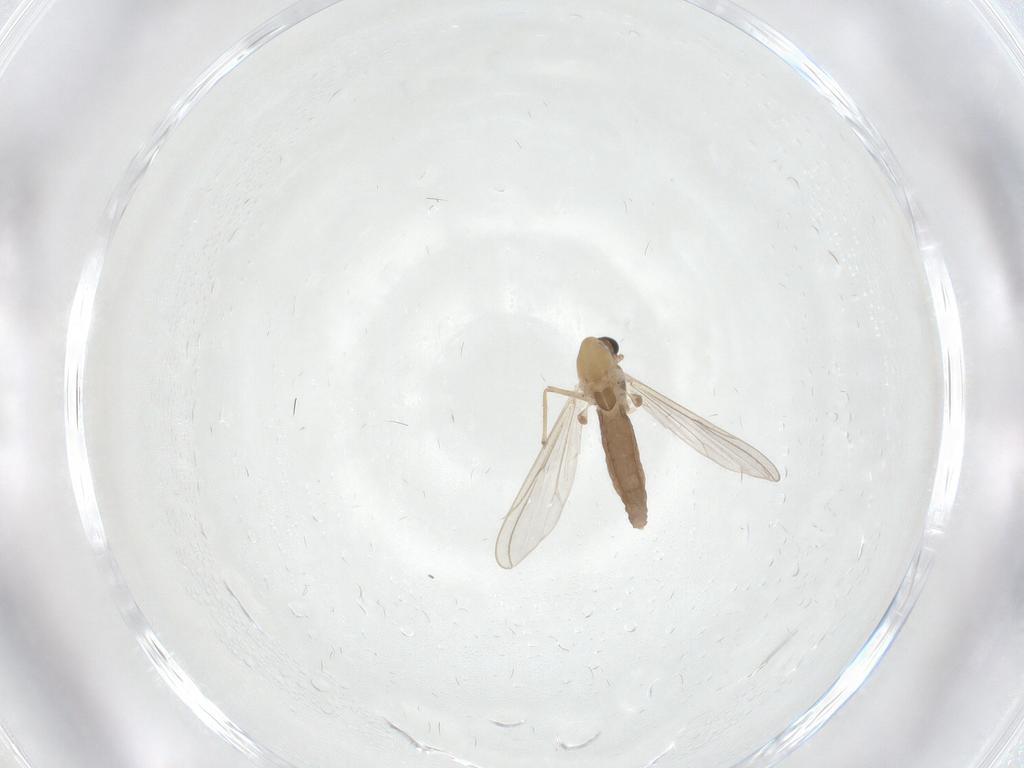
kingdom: Animalia
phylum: Arthropoda
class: Insecta
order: Diptera
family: Chironomidae
